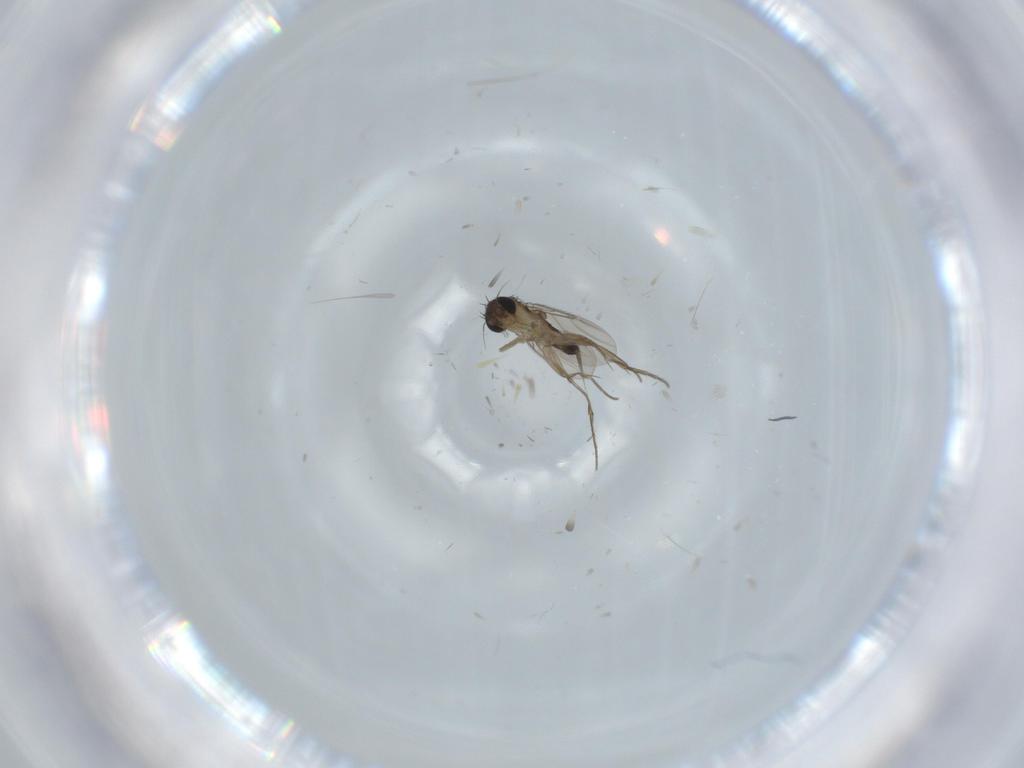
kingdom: Animalia
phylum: Arthropoda
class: Insecta
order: Diptera
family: Phoridae
